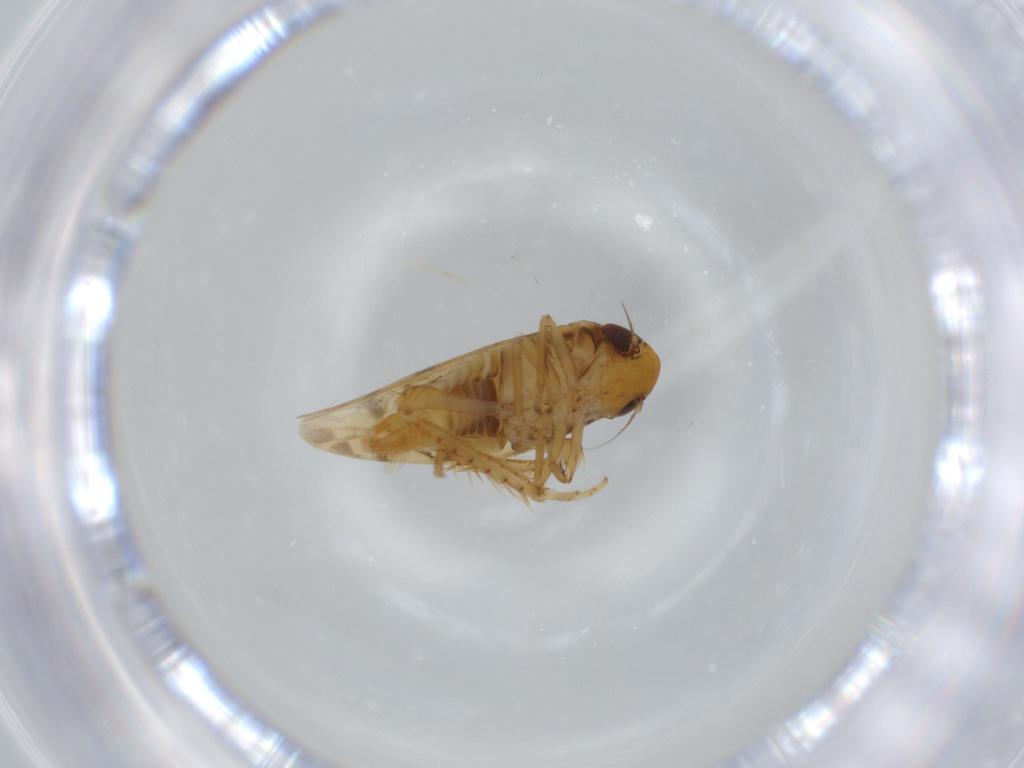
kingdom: Animalia
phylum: Arthropoda
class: Insecta
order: Hemiptera
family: Cicadellidae
